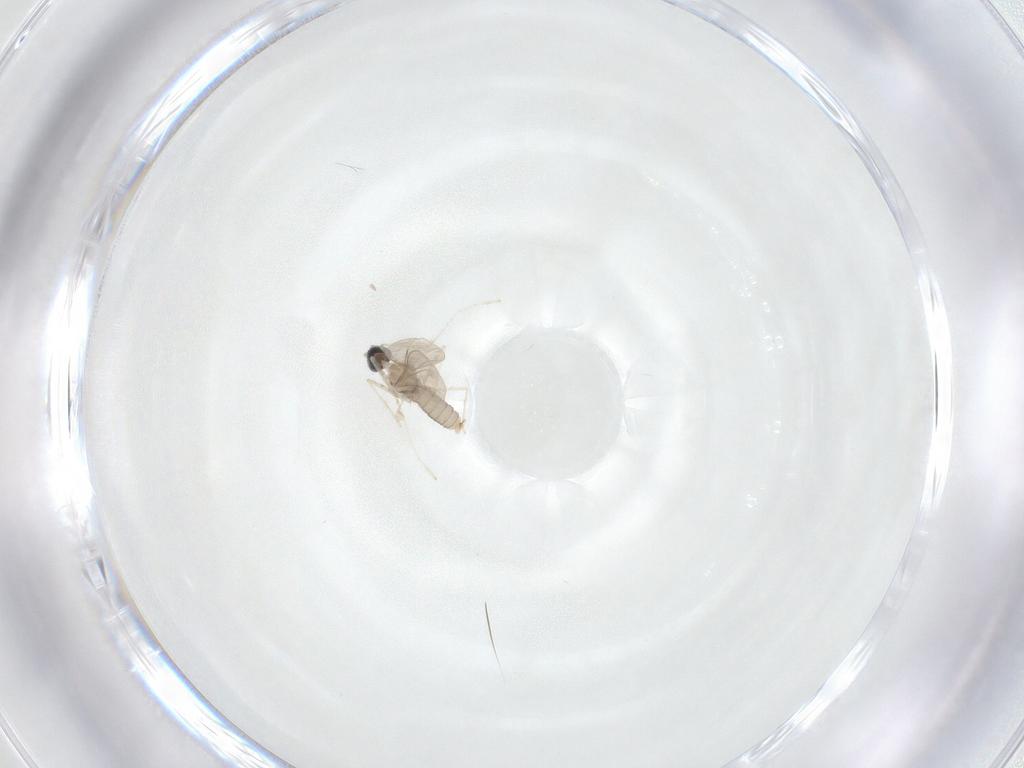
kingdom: Animalia
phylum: Arthropoda
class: Insecta
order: Diptera
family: Cecidomyiidae
